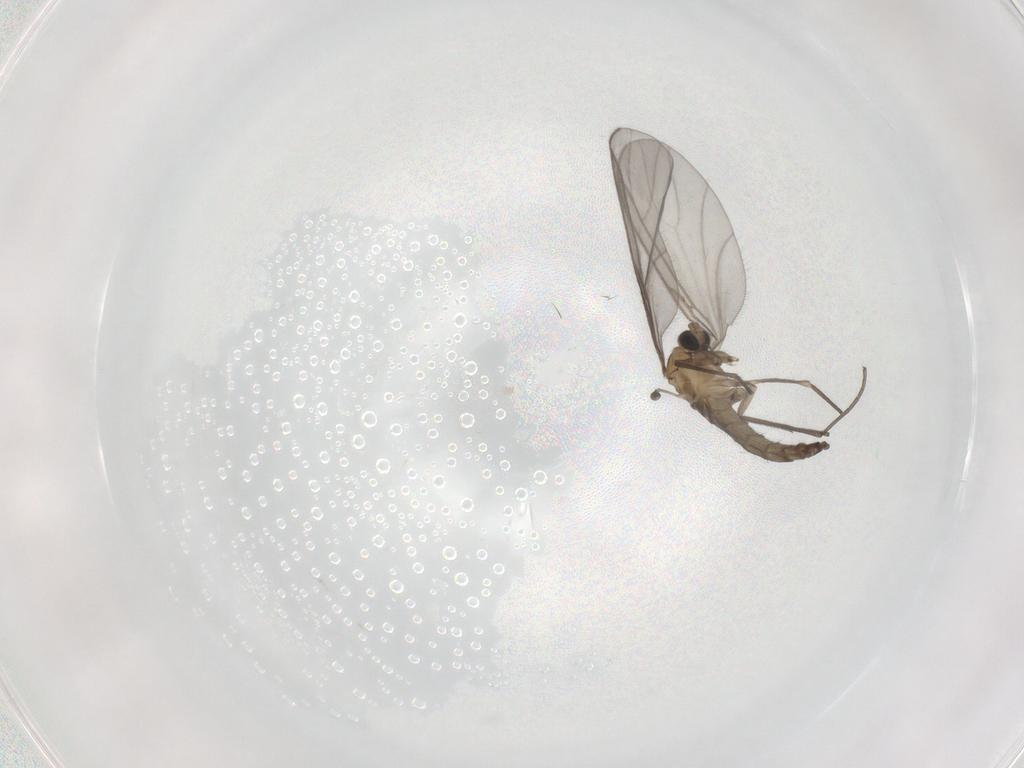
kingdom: Animalia
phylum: Arthropoda
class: Insecta
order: Diptera
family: Sciaridae
